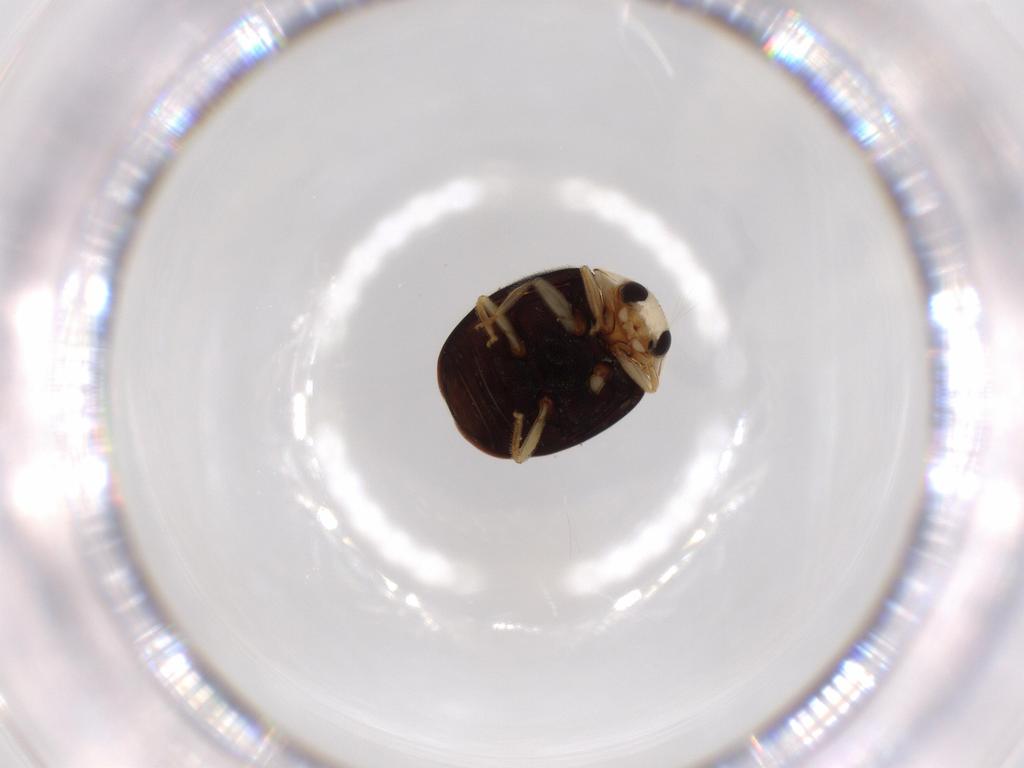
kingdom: Animalia
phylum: Arthropoda
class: Insecta
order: Coleoptera
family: Coccinellidae
